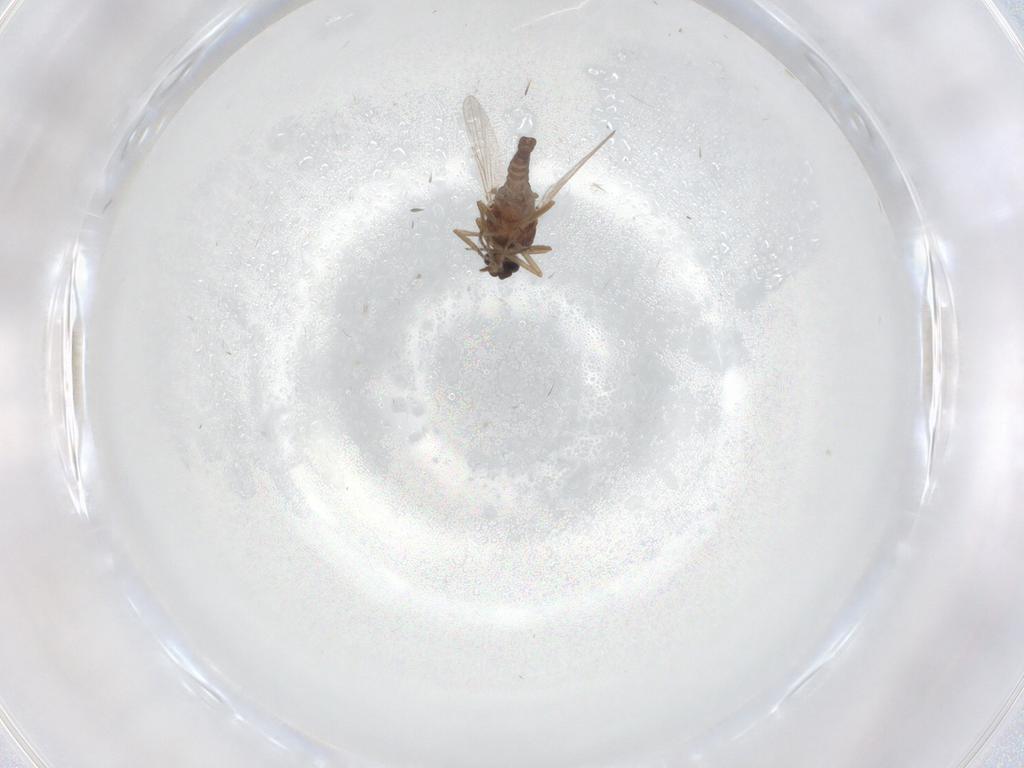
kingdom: Animalia
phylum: Arthropoda
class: Insecta
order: Diptera
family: Ceratopogonidae
